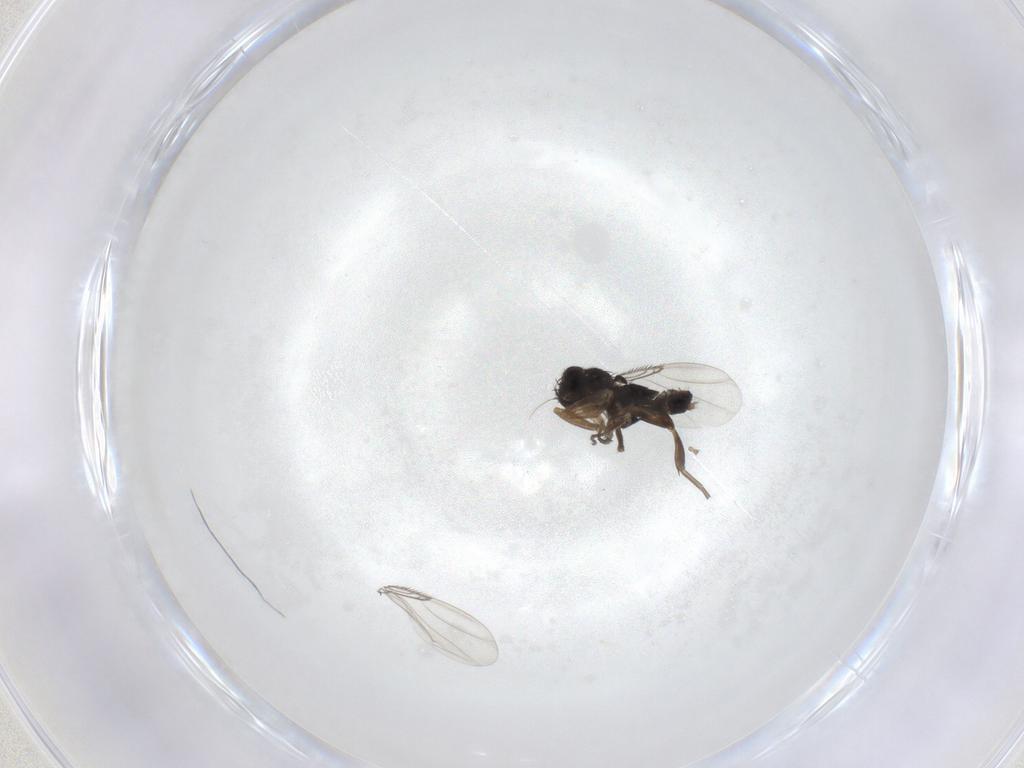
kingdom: Animalia
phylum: Arthropoda
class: Insecta
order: Diptera
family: Phoridae
